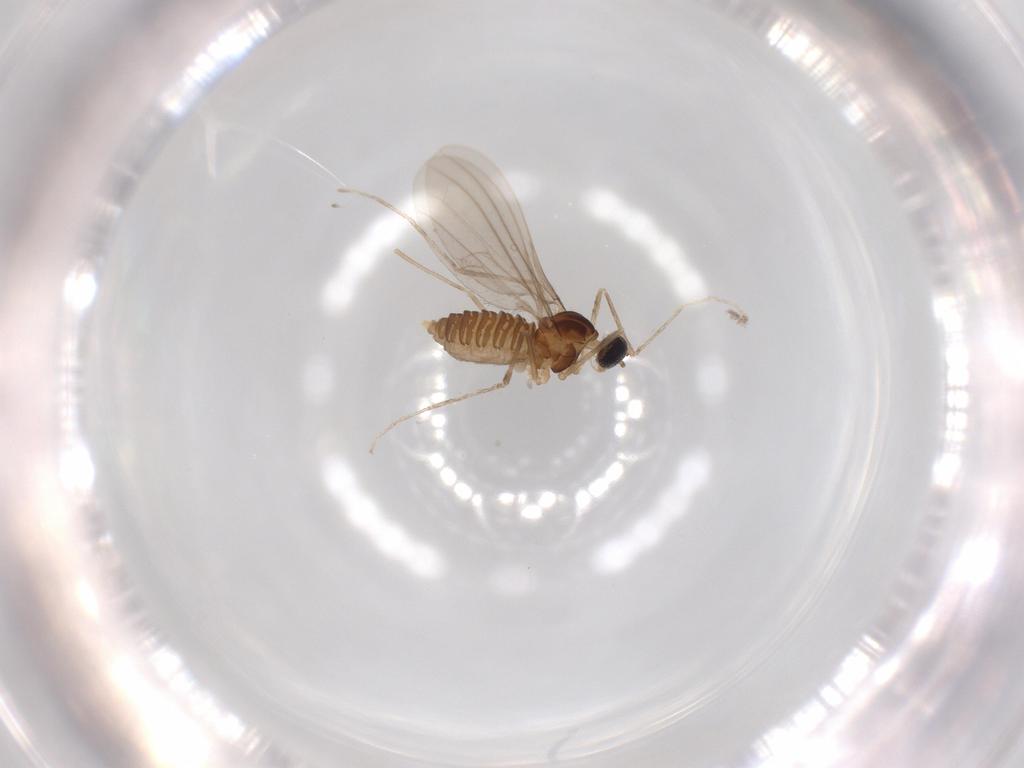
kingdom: Animalia
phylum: Arthropoda
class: Insecta
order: Diptera
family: Cecidomyiidae
